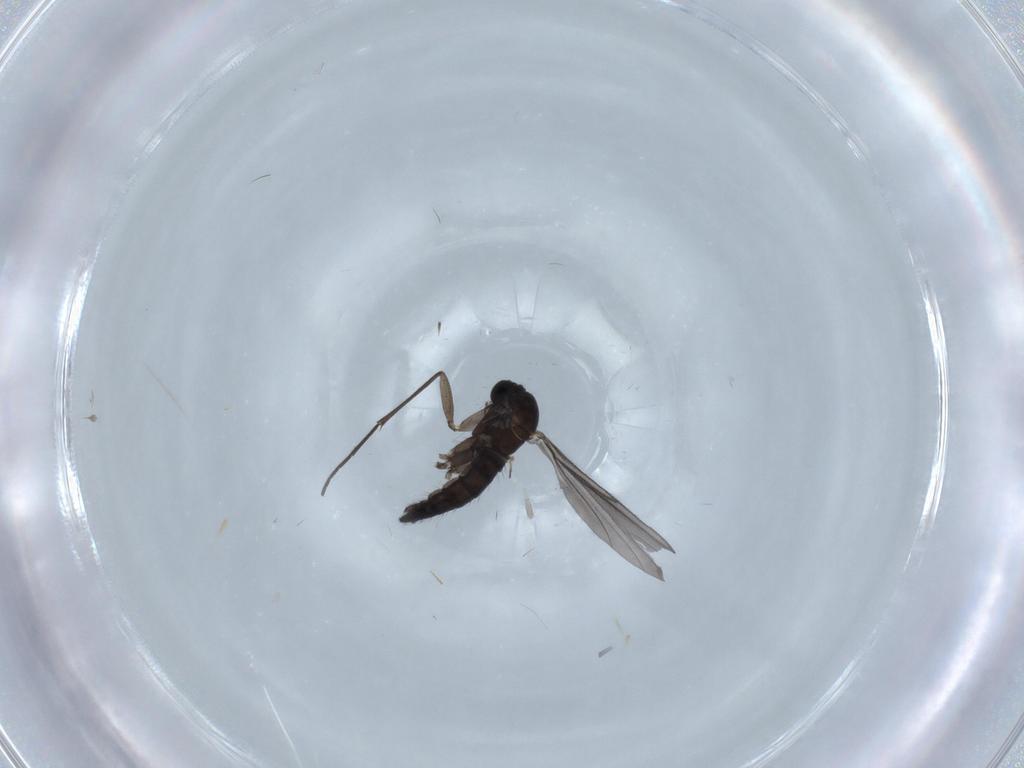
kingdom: Animalia
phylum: Arthropoda
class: Insecta
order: Diptera
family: Sciaridae
